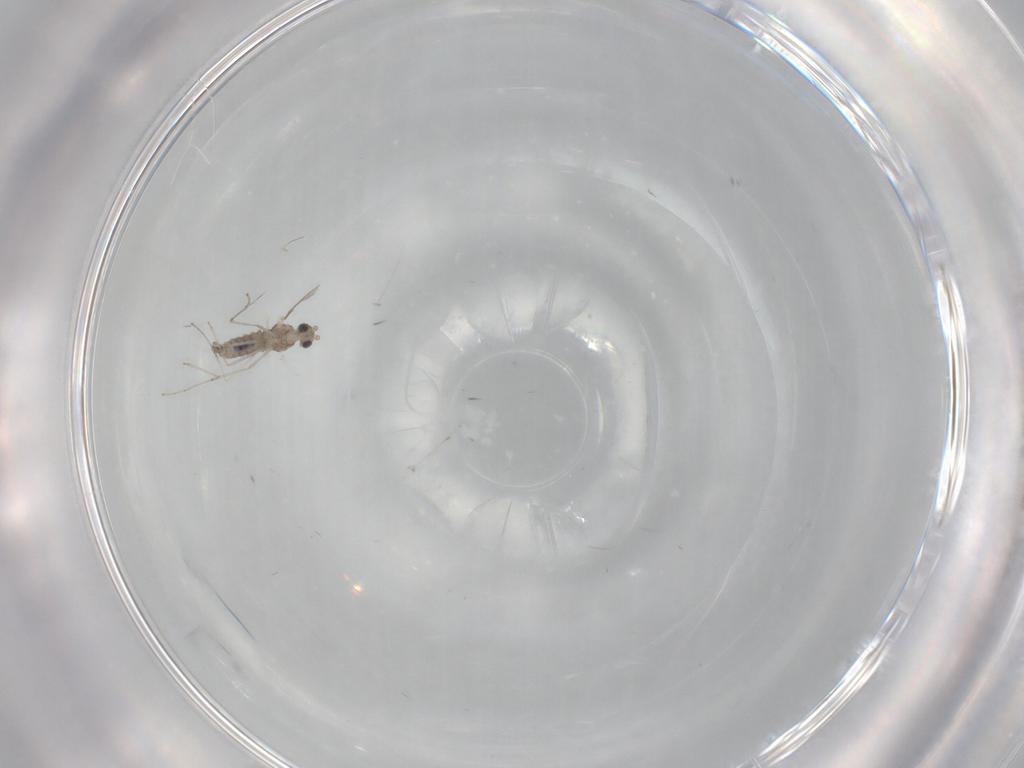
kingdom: Animalia
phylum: Arthropoda
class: Insecta
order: Diptera
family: Cecidomyiidae
